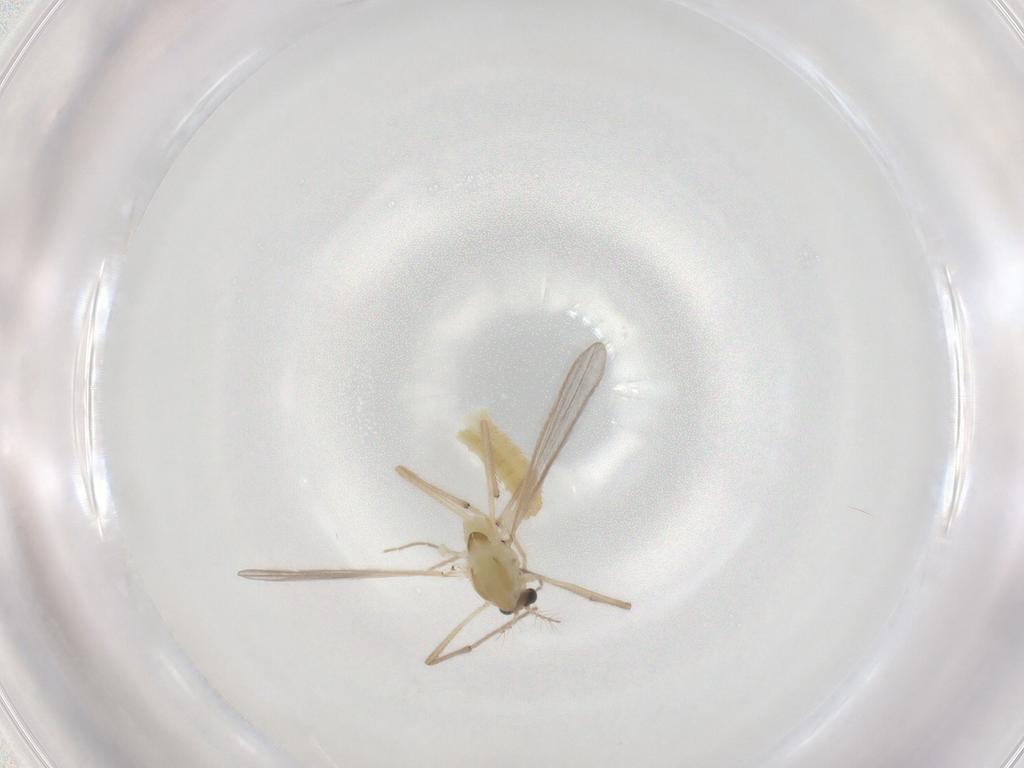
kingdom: Animalia
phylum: Arthropoda
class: Insecta
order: Diptera
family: Chironomidae
